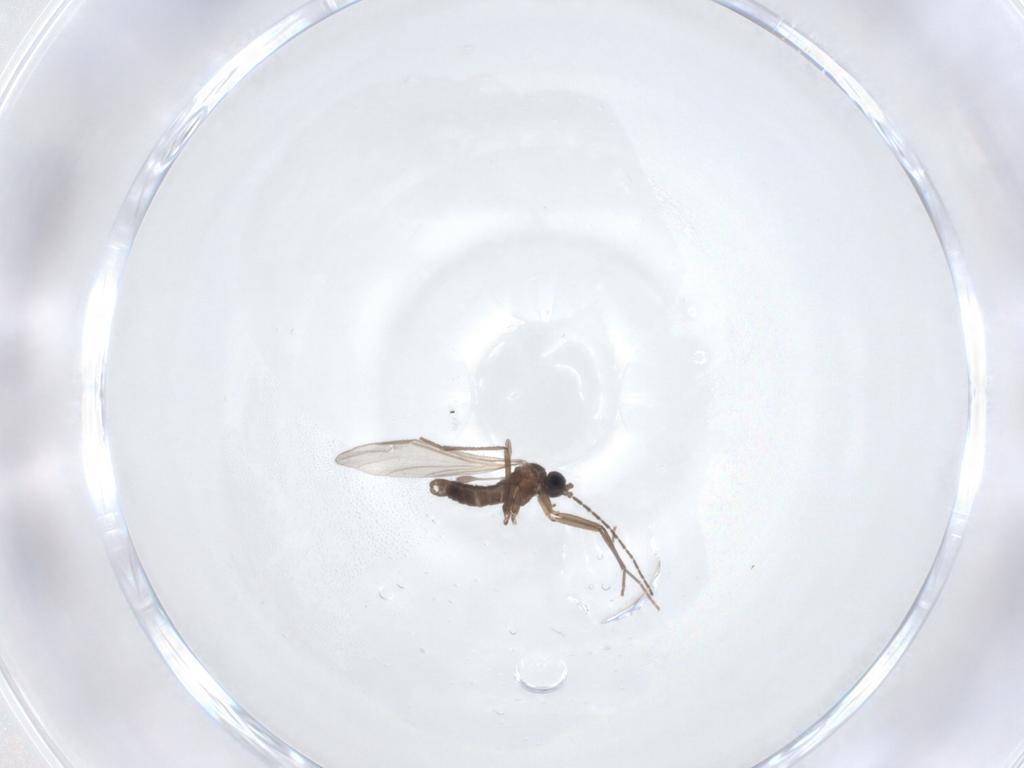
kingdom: Animalia
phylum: Arthropoda
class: Insecta
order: Diptera
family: Sciaridae
